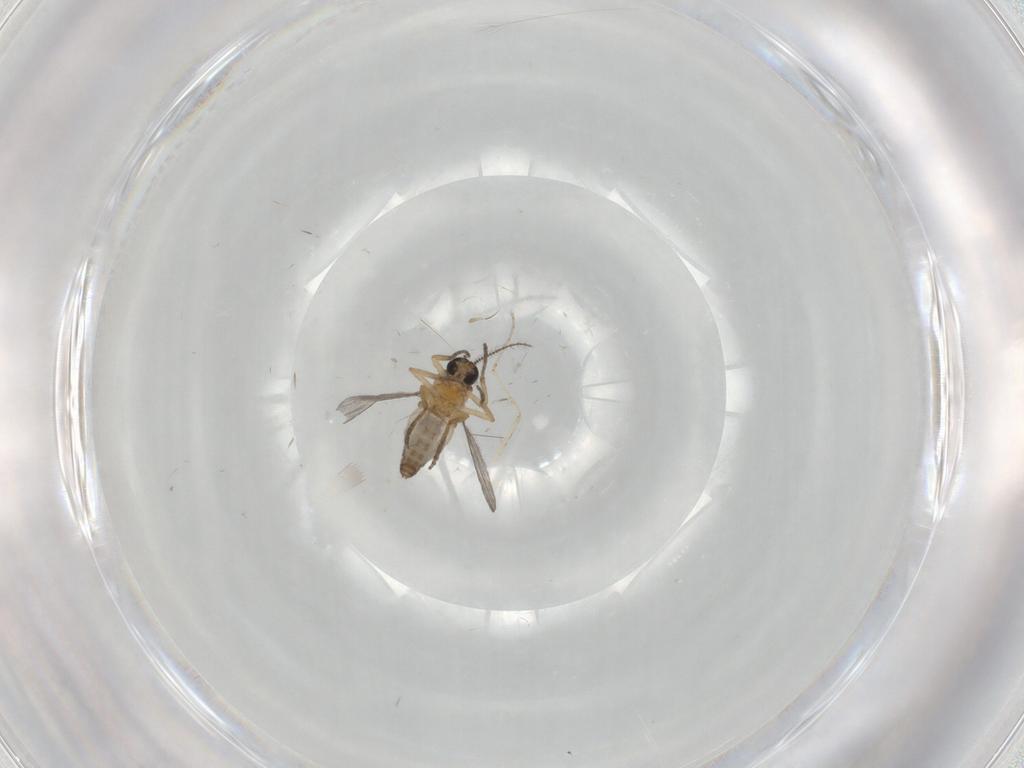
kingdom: Animalia
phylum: Arthropoda
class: Insecta
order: Diptera
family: Cecidomyiidae
